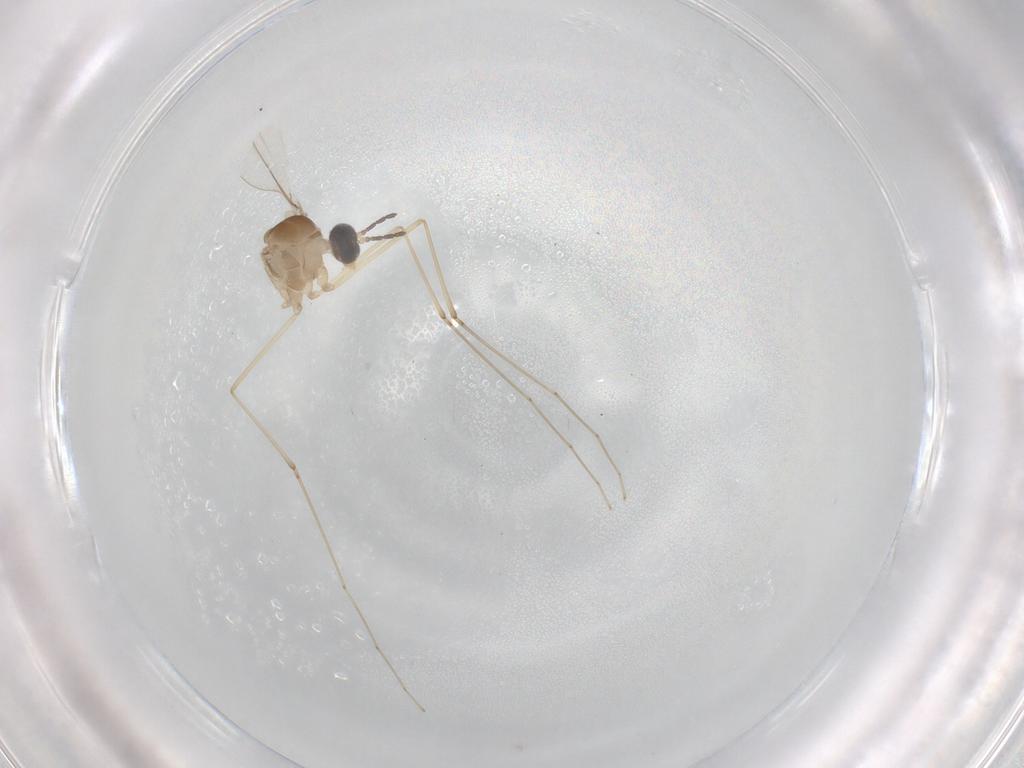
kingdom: Animalia
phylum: Arthropoda
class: Insecta
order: Diptera
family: Cecidomyiidae
